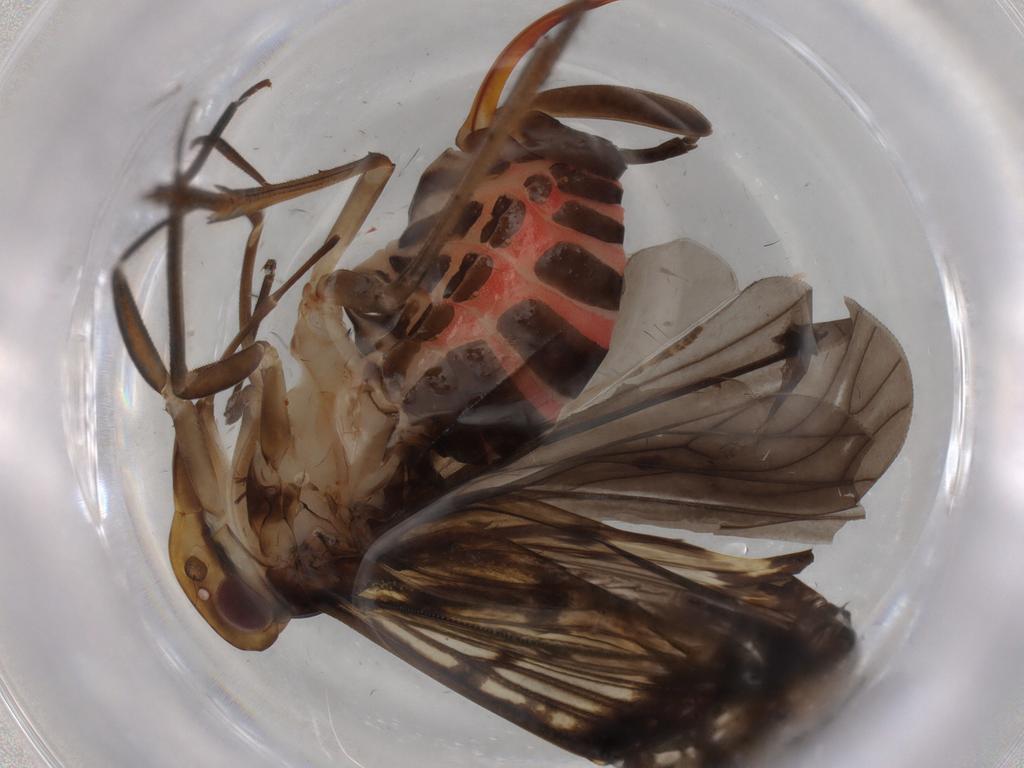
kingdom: Animalia
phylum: Arthropoda
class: Insecta
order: Hemiptera
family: Cixiidae
